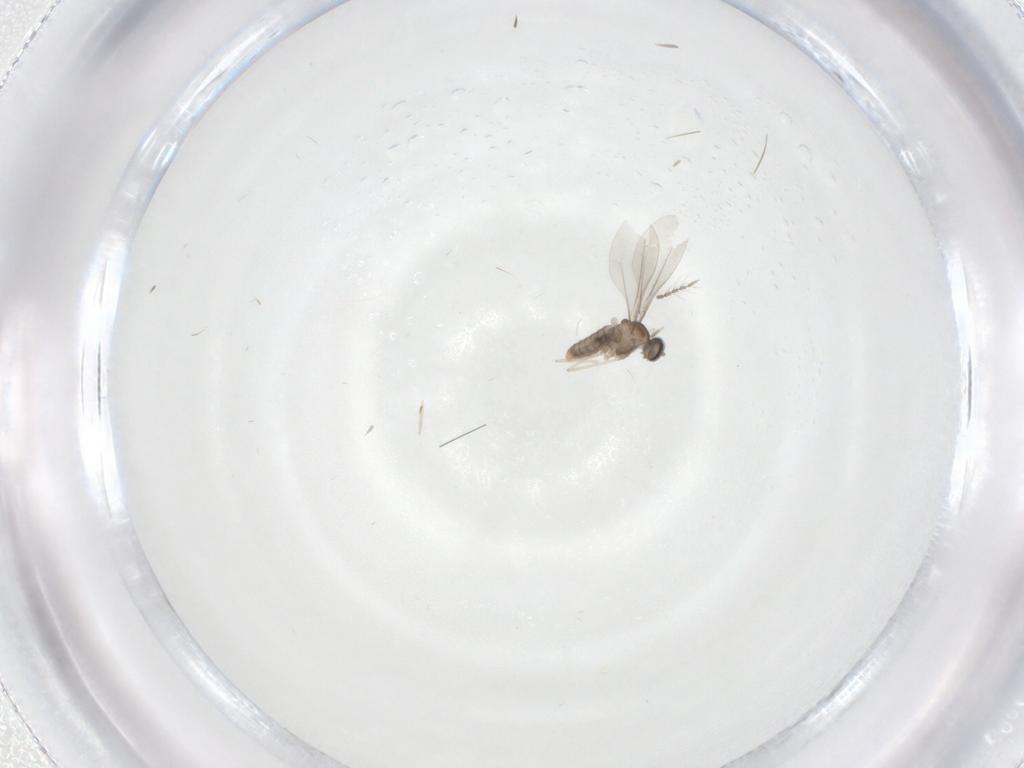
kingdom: Animalia
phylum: Arthropoda
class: Insecta
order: Diptera
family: Cecidomyiidae
